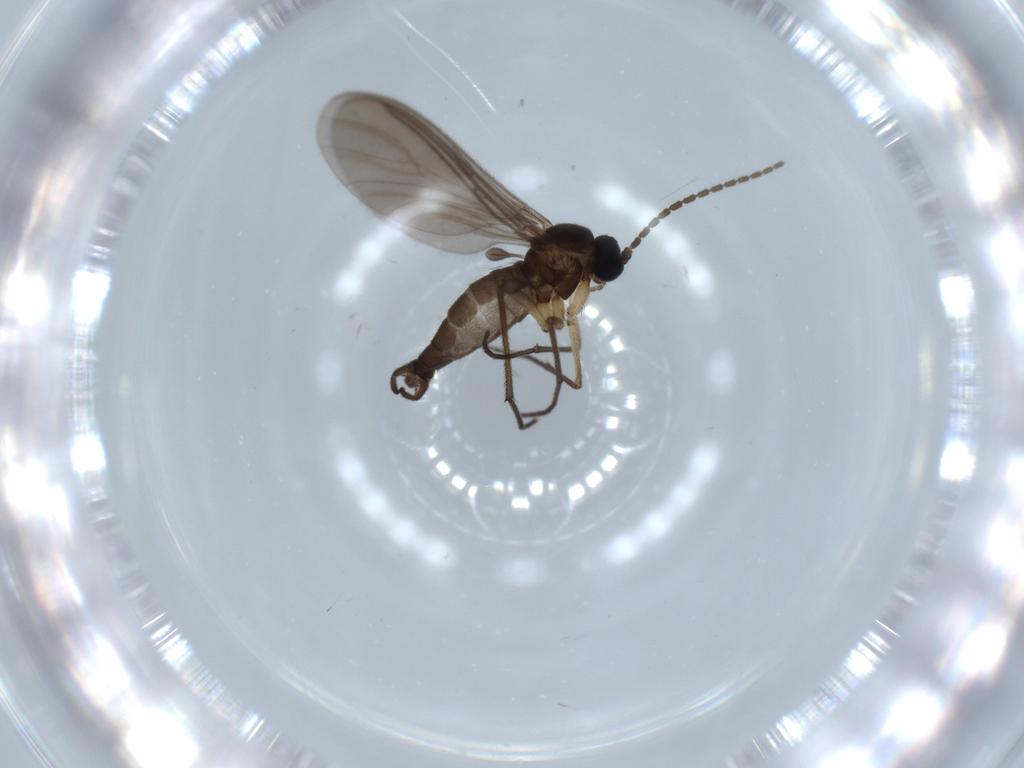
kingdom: Animalia
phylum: Arthropoda
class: Insecta
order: Diptera
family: Sciaridae
